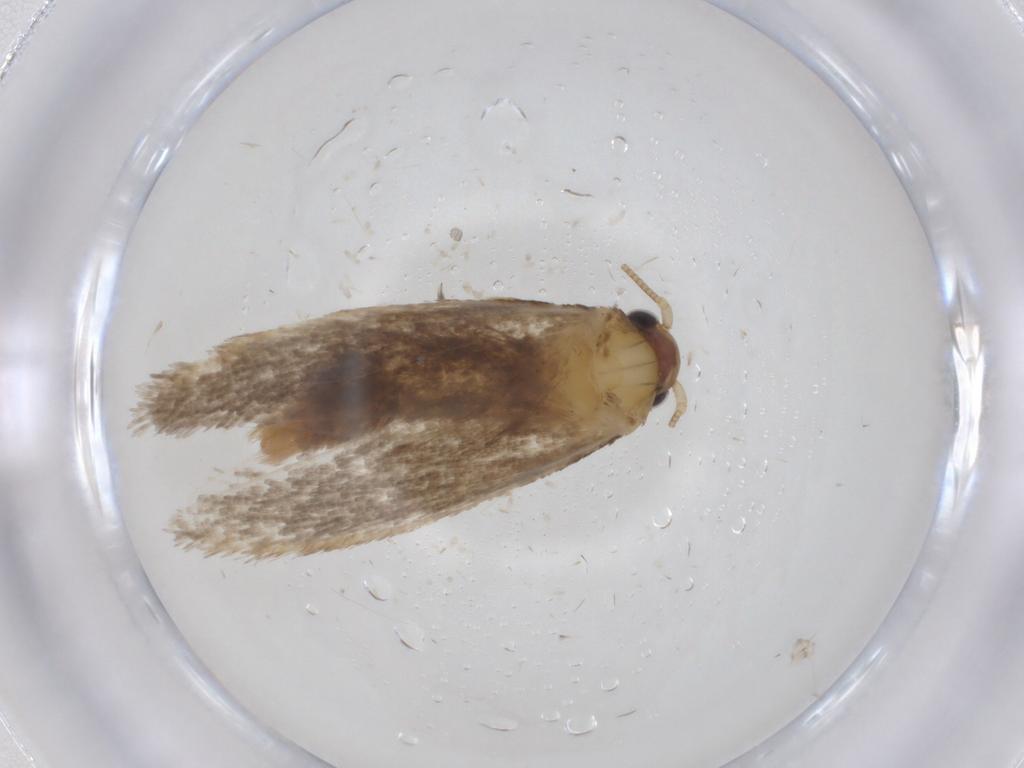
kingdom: Animalia
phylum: Arthropoda
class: Insecta
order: Lepidoptera
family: Tineidae
